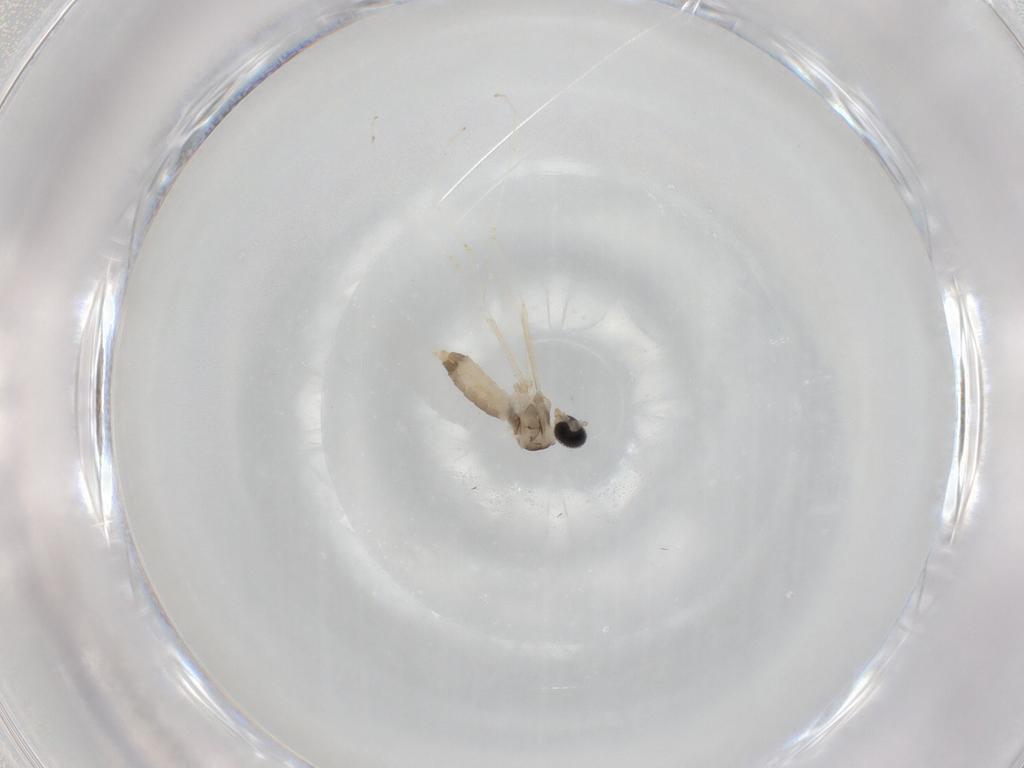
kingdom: Animalia
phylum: Arthropoda
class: Insecta
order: Diptera
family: Cecidomyiidae
